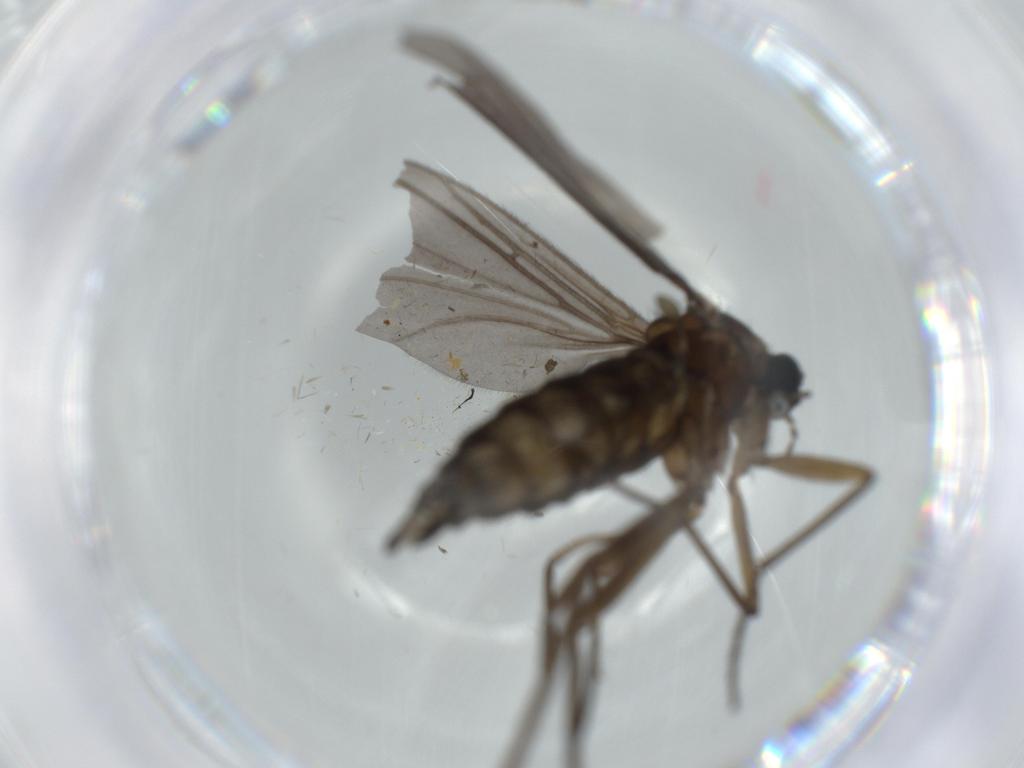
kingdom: Animalia
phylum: Arthropoda
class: Insecta
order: Diptera
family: Sciaridae
